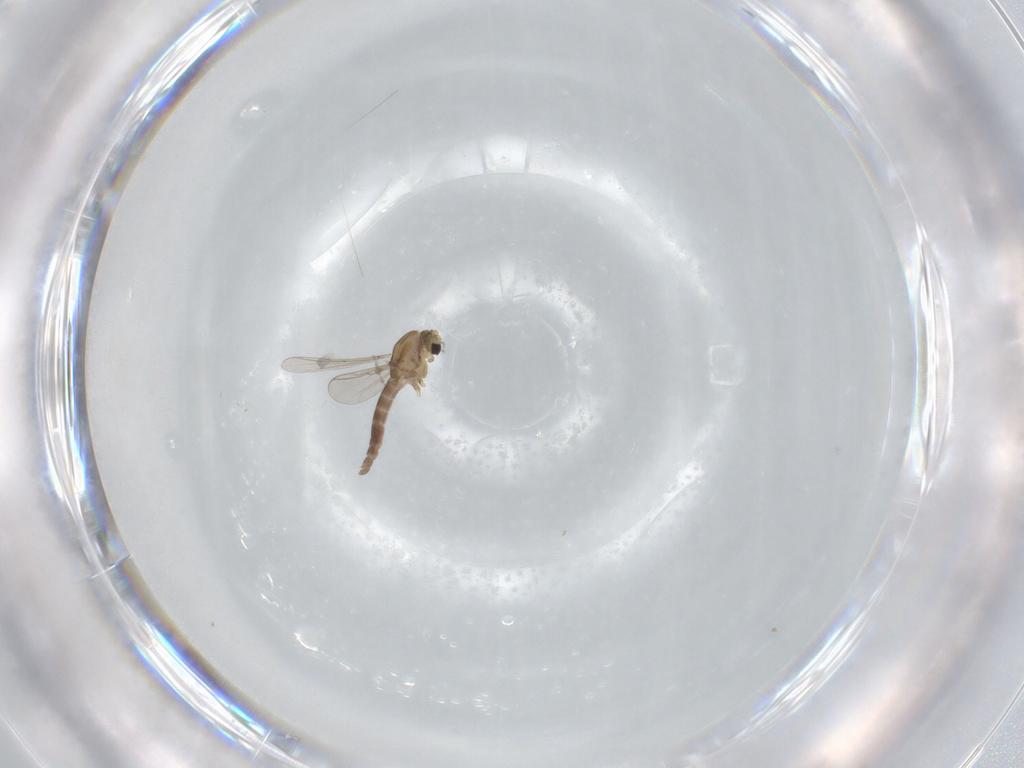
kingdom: Animalia
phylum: Arthropoda
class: Insecta
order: Diptera
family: Chironomidae
